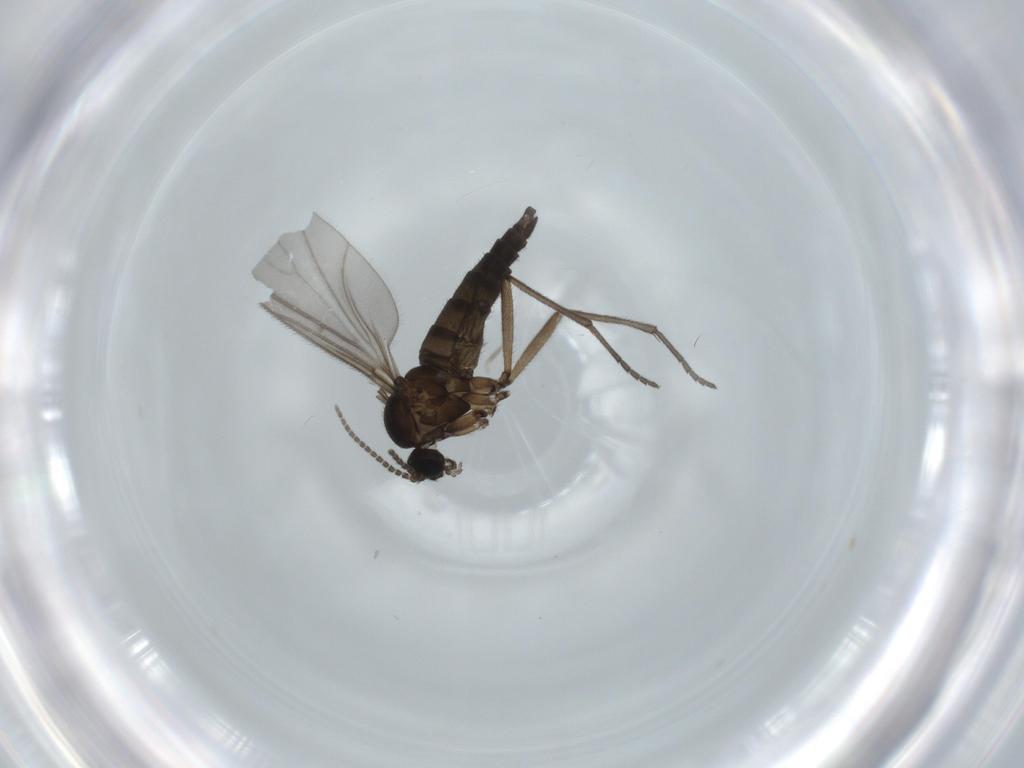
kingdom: Animalia
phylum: Arthropoda
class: Insecta
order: Diptera
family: Sciaridae
